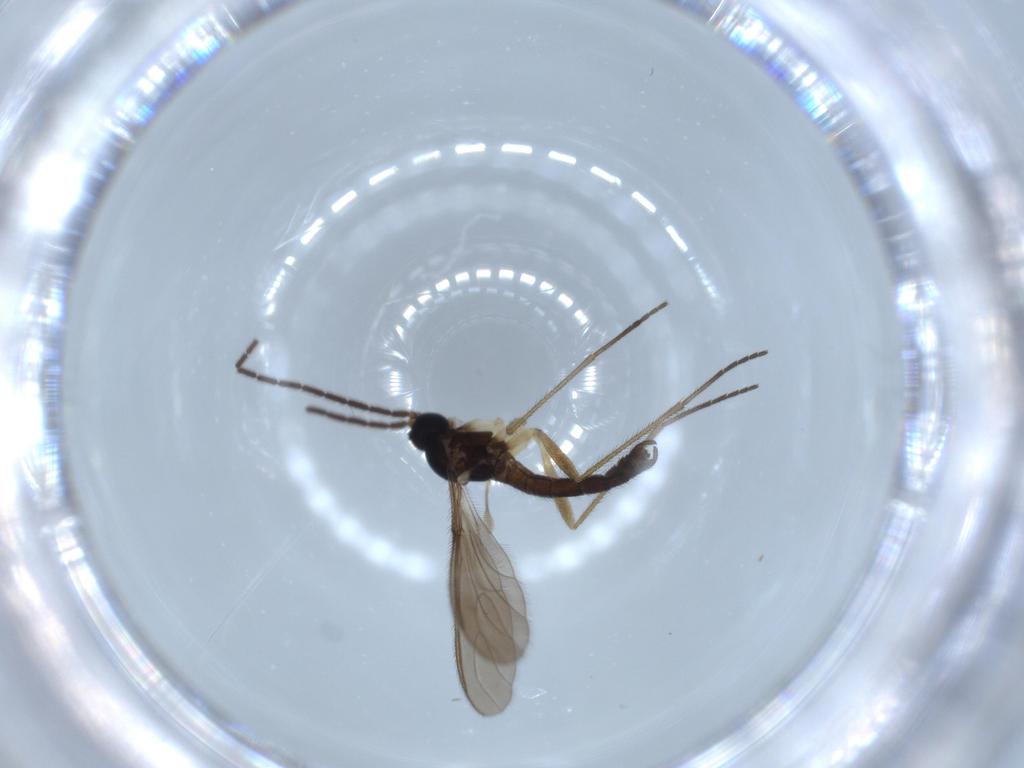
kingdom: Animalia
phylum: Arthropoda
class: Insecta
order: Diptera
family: Sciaridae
